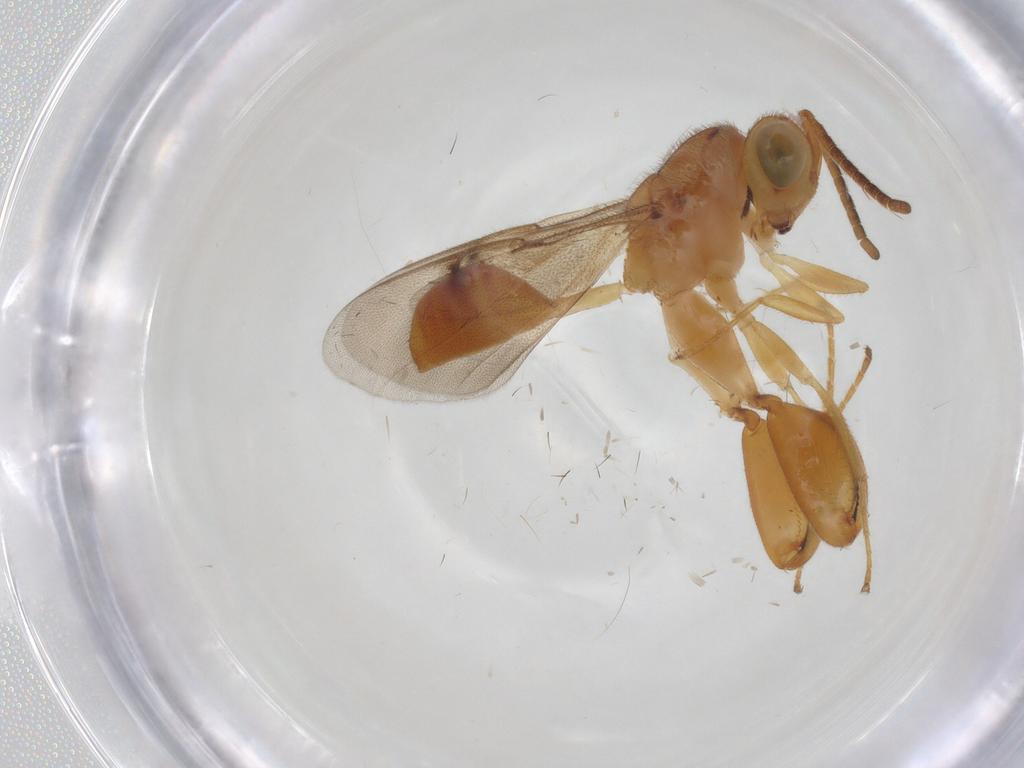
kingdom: Animalia
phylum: Arthropoda
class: Insecta
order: Hymenoptera
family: Chalcididae
